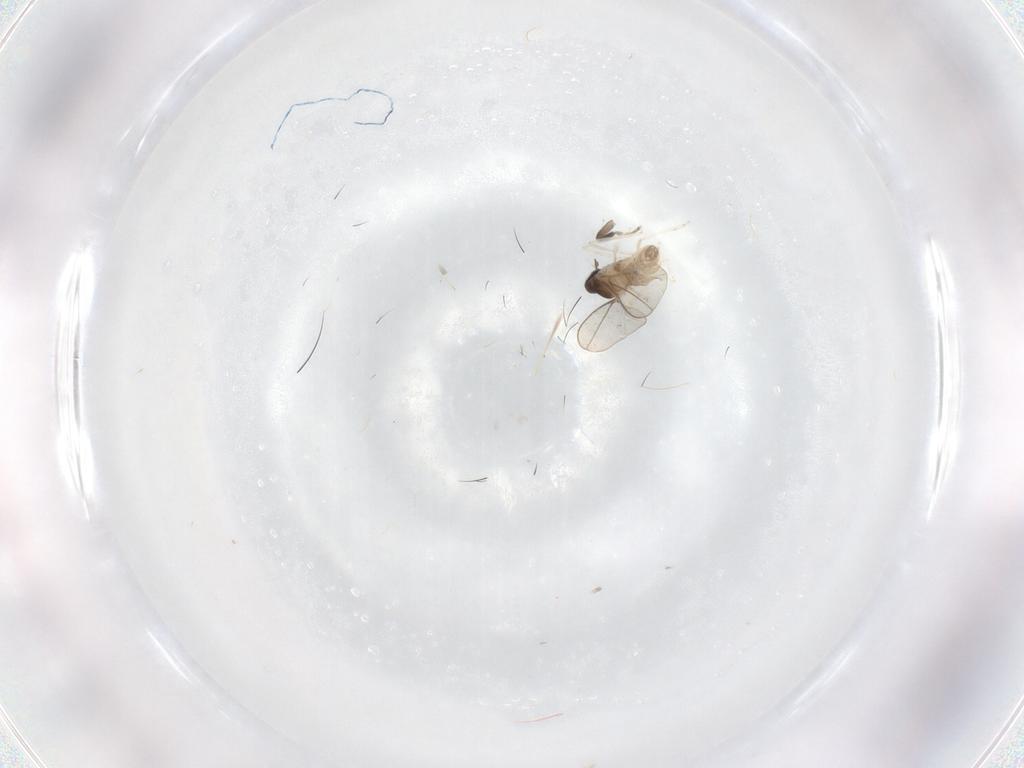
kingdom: Animalia
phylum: Arthropoda
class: Insecta
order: Diptera
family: Cecidomyiidae
